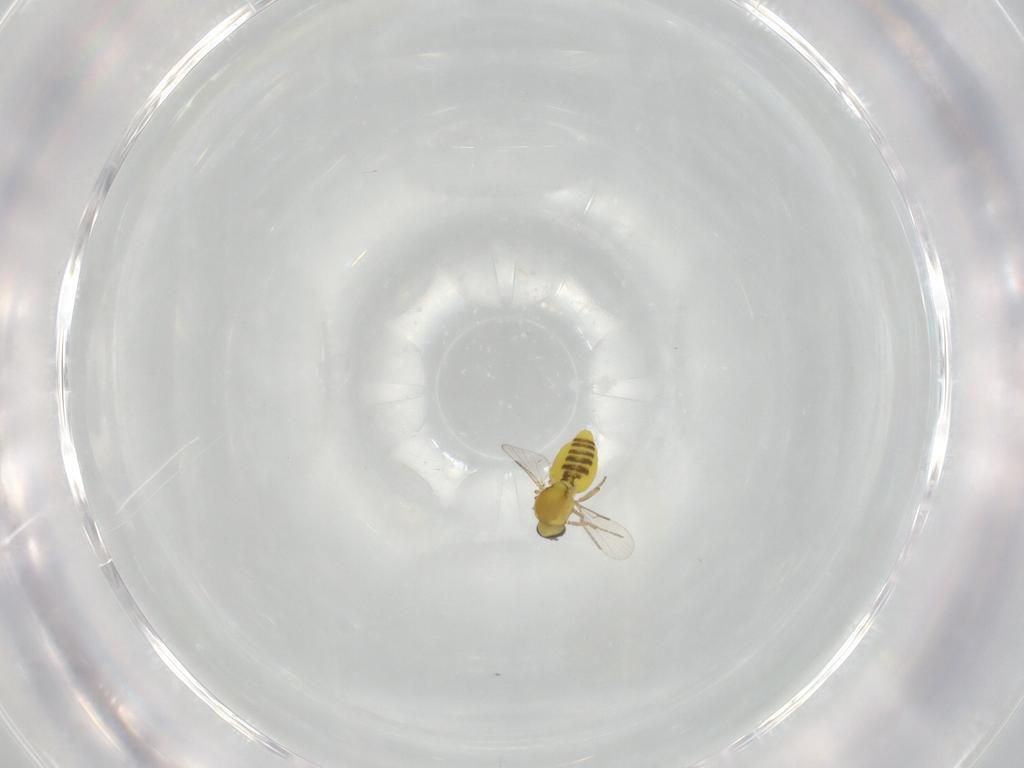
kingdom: Animalia
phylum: Arthropoda
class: Insecta
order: Diptera
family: Ceratopogonidae
